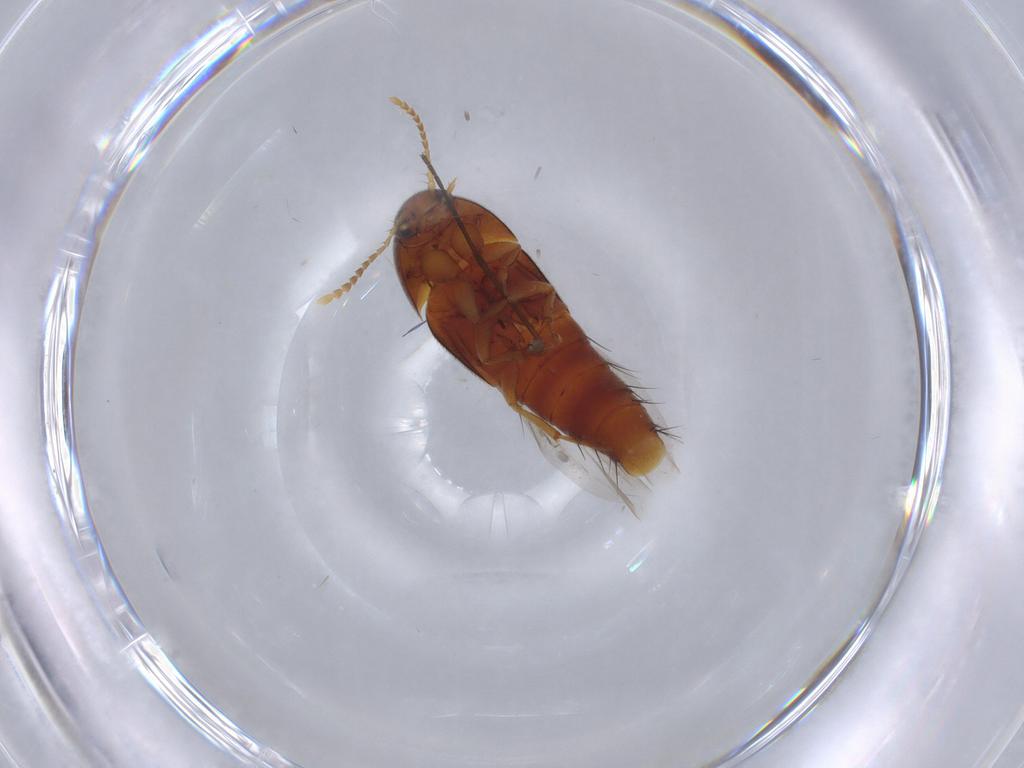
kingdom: Animalia
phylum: Arthropoda
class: Insecta
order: Coleoptera
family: Staphylinidae
